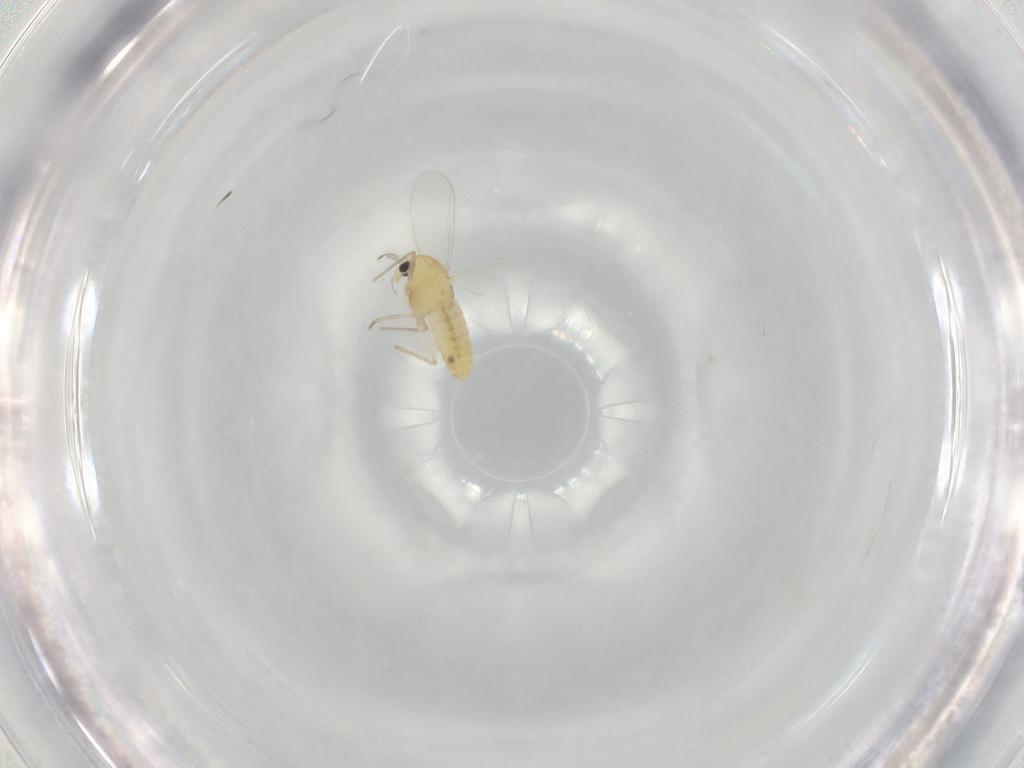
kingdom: Animalia
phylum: Arthropoda
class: Insecta
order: Diptera
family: Chironomidae
